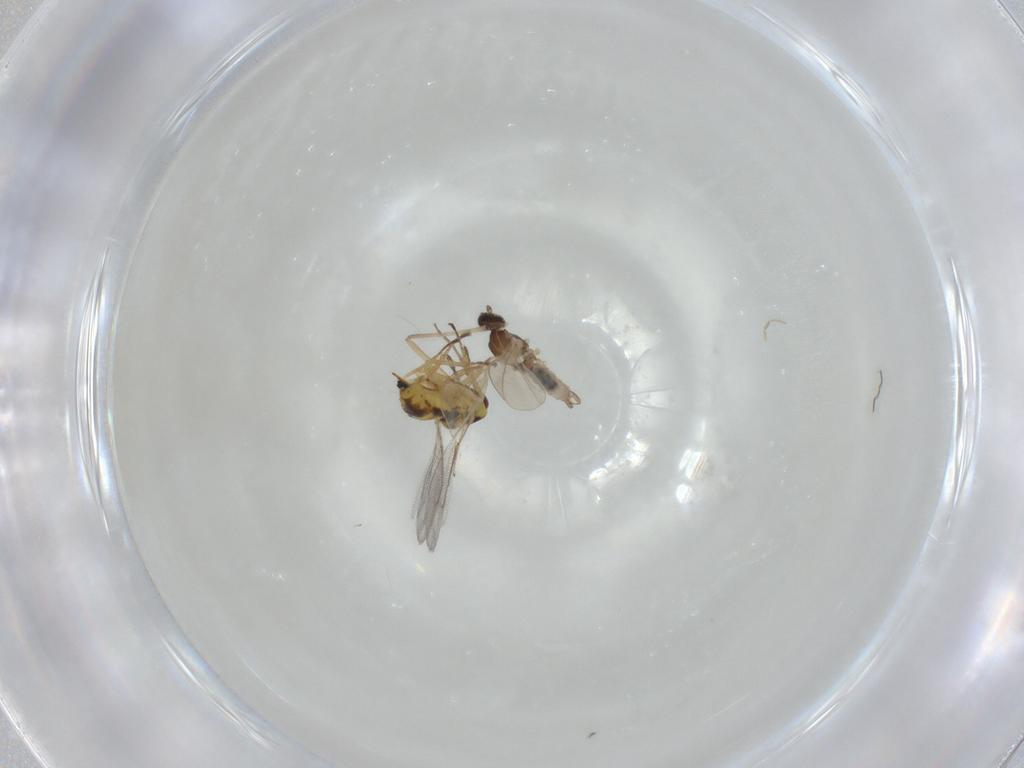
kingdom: Animalia
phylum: Arthropoda
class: Insecta
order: Hymenoptera
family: Eulophidae
